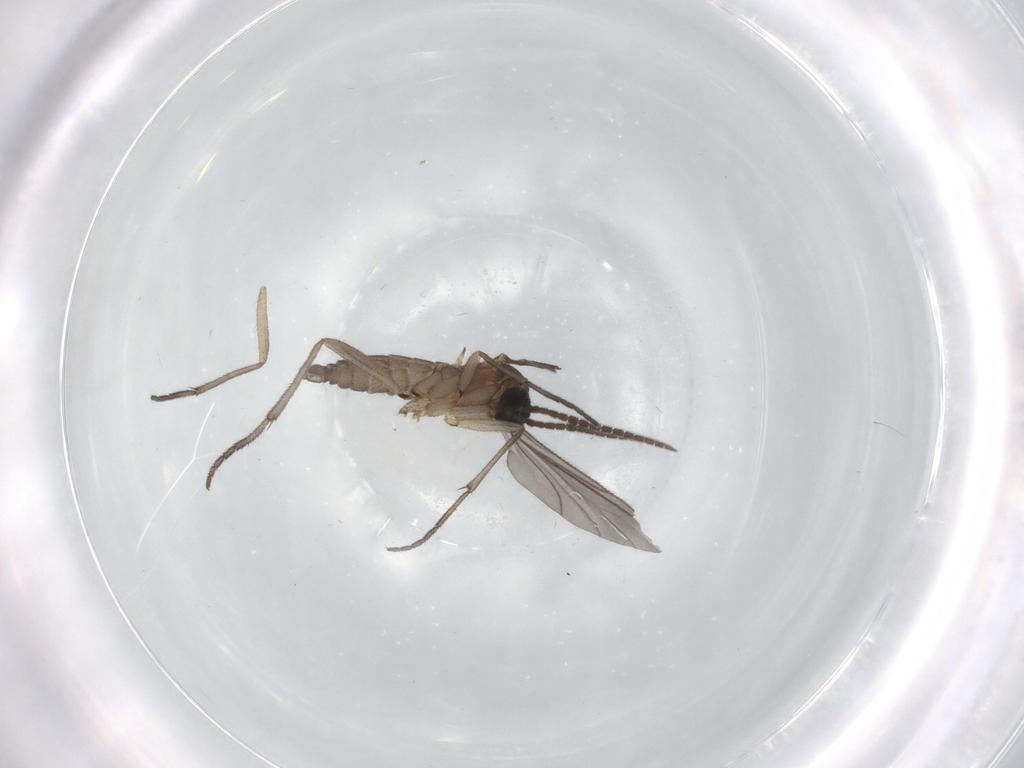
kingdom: Animalia
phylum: Arthropoda
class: Insecta
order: Diptera
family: Sciaridae
